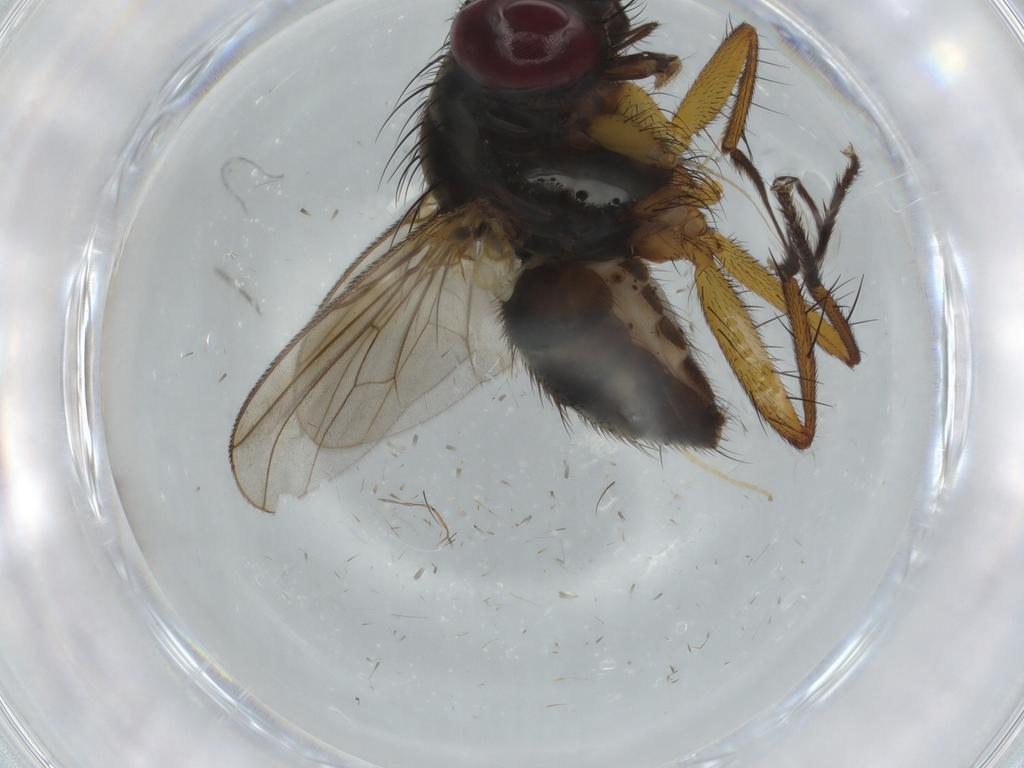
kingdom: Animalia
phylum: Arthropoda
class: Insecta
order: Diptera
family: Muscidae
